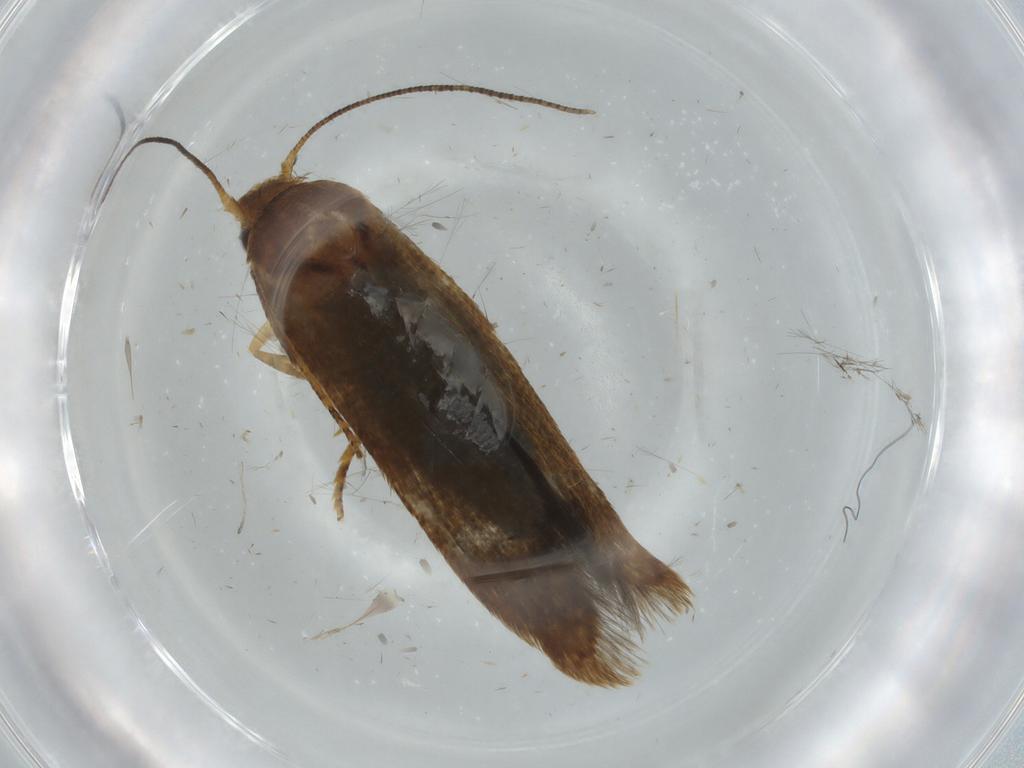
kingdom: Animalia
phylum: Arthropoda
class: Insecta
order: Lepidoptera
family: Blastobasidae
